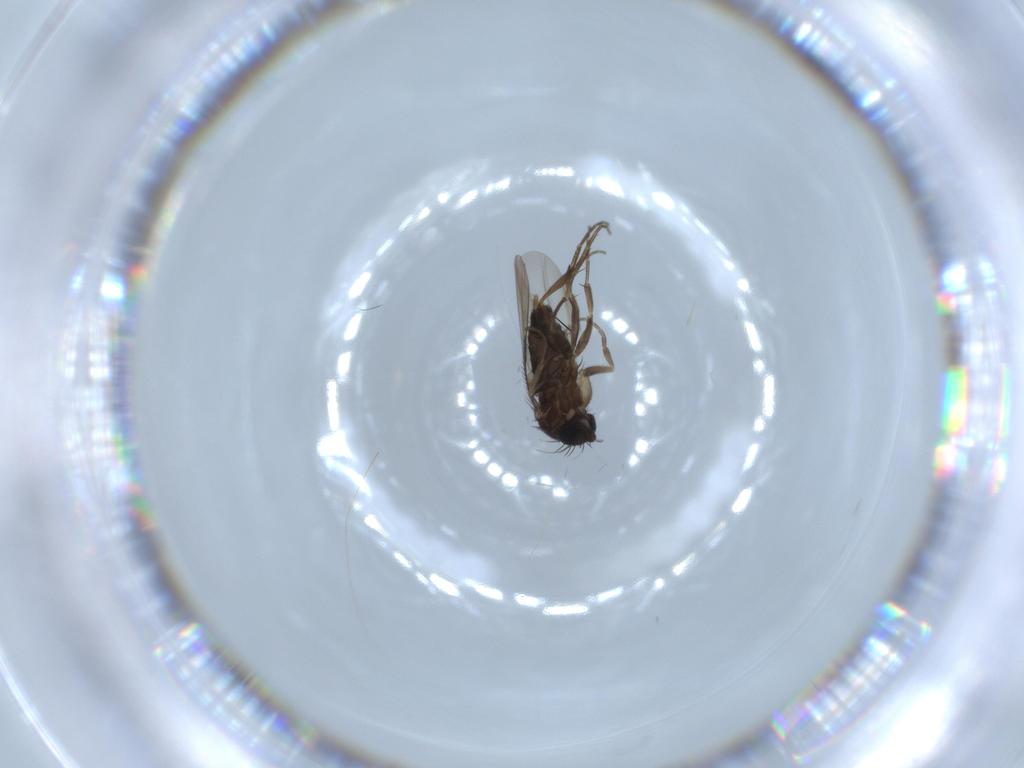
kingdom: Animalia
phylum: Arthropoda
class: Insecta
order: Diptera
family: Phoridae
